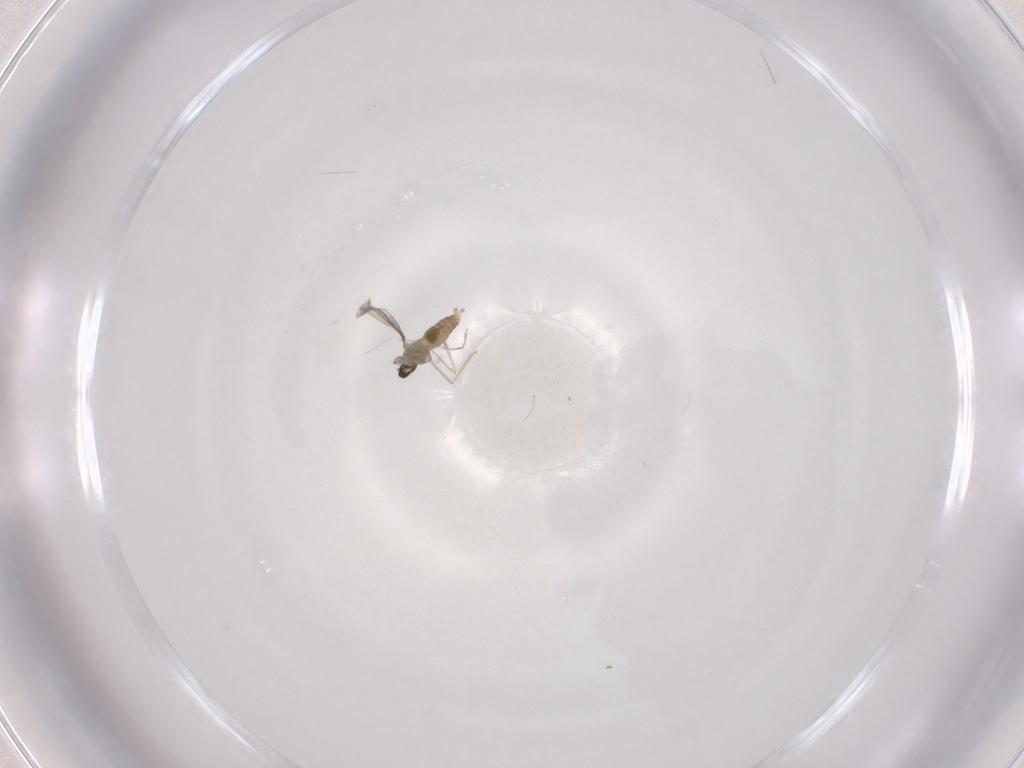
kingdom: Animalia
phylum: Arthropoda
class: Insecta
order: Diptera
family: Cecidomyiidae
